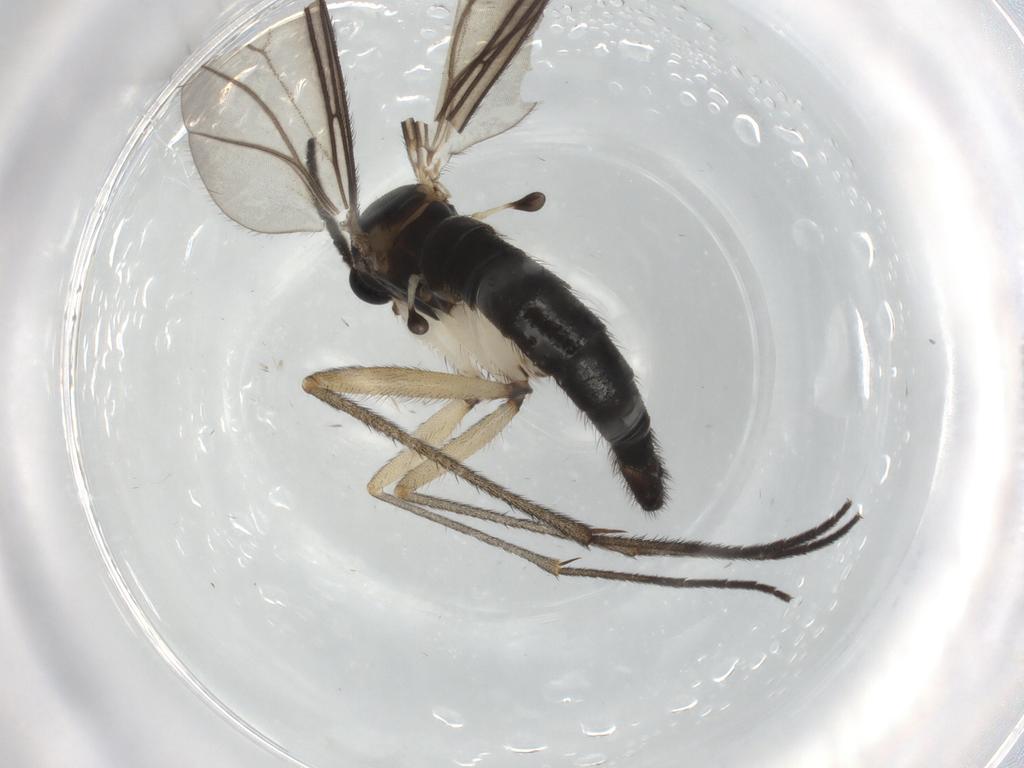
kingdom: Animalia
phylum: Arthropoda
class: Insecta
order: Diptera
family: Sciaridae
